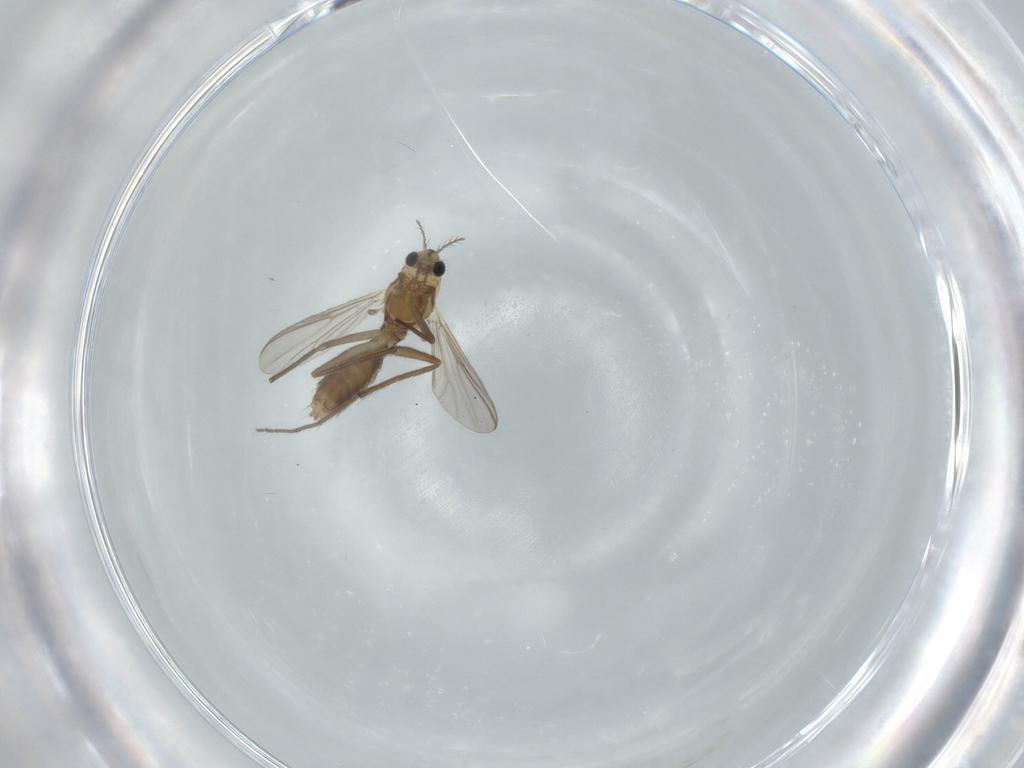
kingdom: Animalia
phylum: Arthropoda
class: Insecta
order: Diptera
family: Chironomidae
